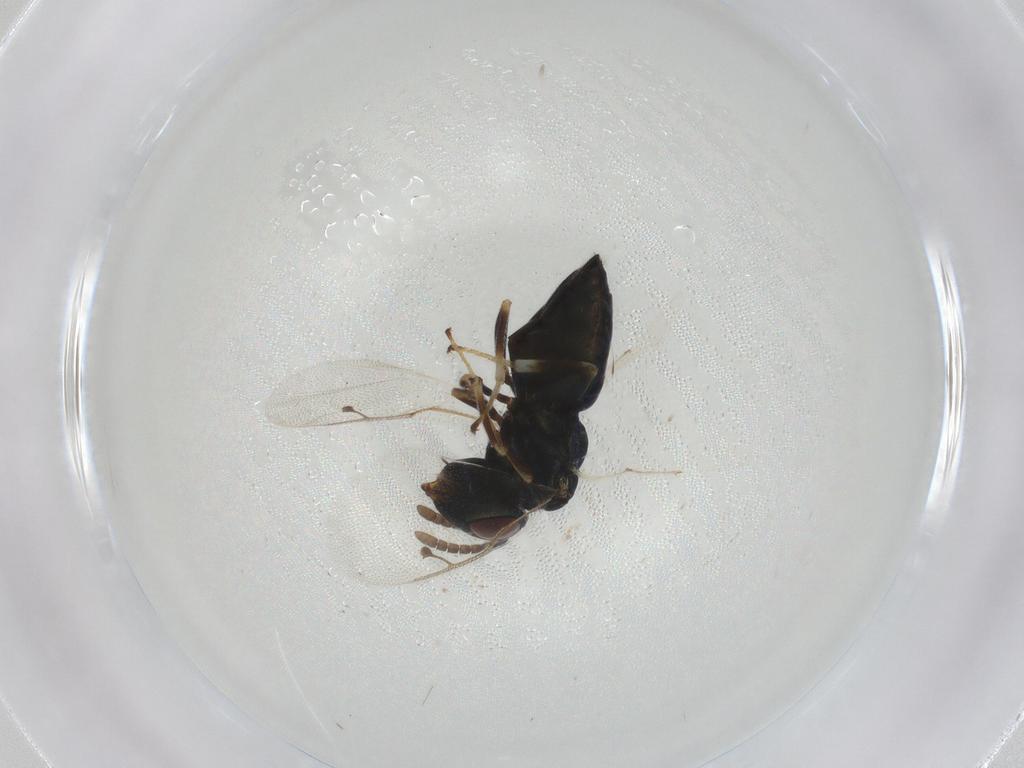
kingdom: Animalia
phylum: Arthropoda
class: Insecta
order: Hymenoptera
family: Pteromalidae
